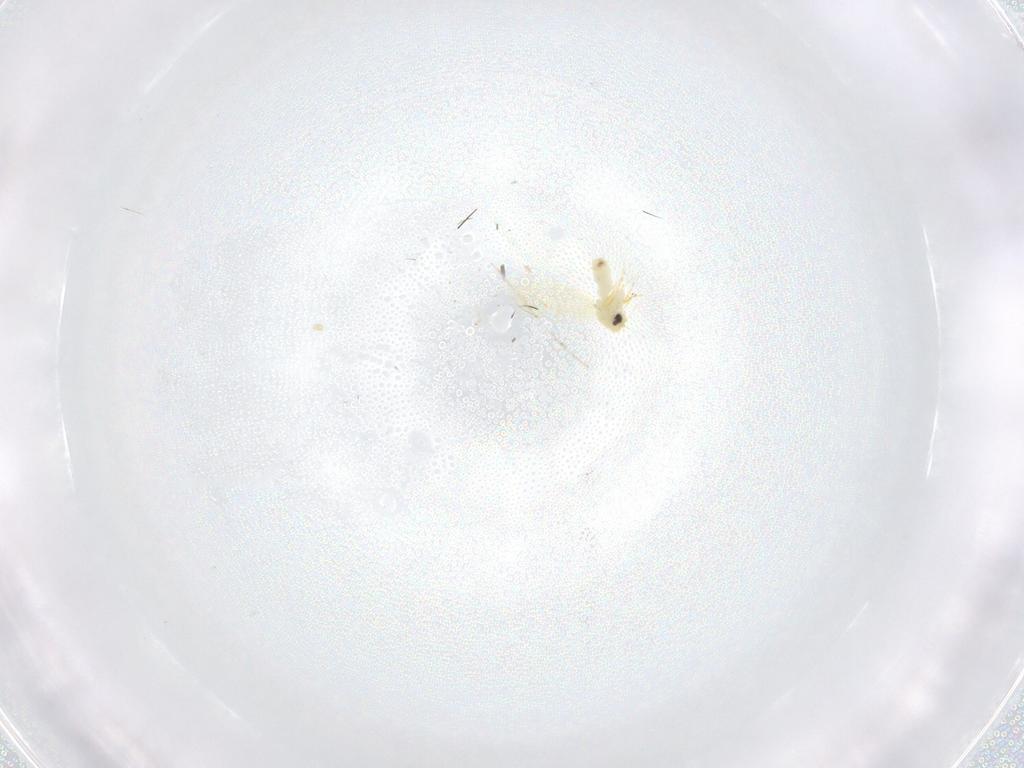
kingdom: Animalia
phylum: Arthropoda
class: Insecta
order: Hemiptera
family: Aleyrodidae
